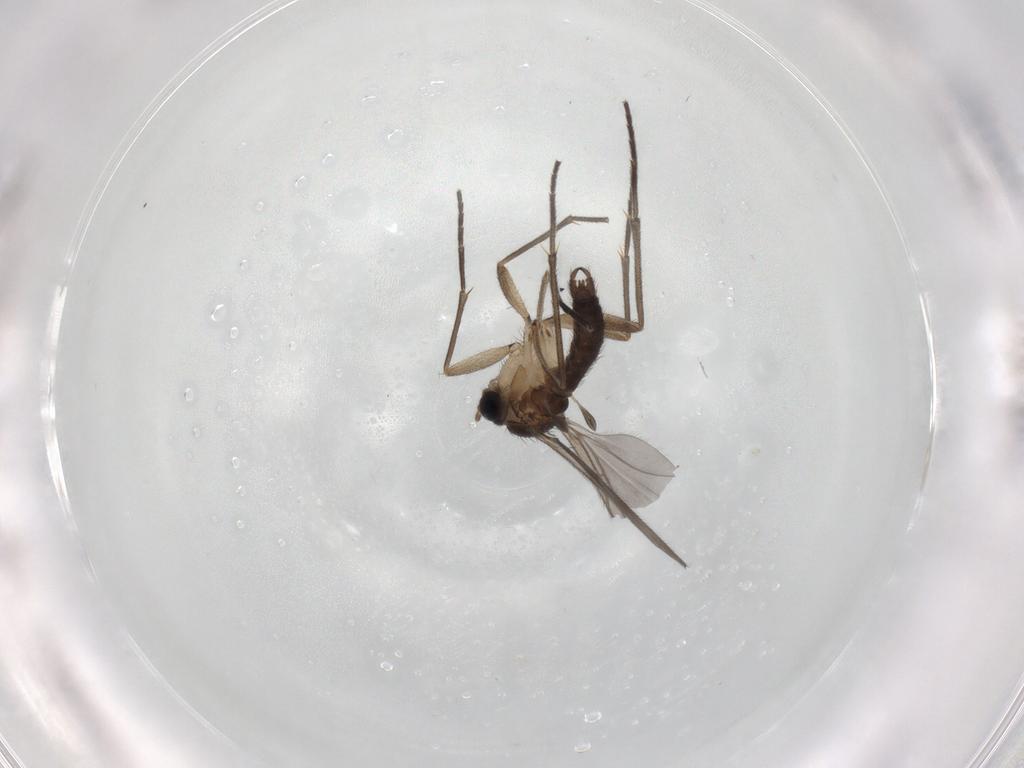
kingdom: Animalia
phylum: Arthropoda
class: Insecta
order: Diptera
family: Sciaridae
